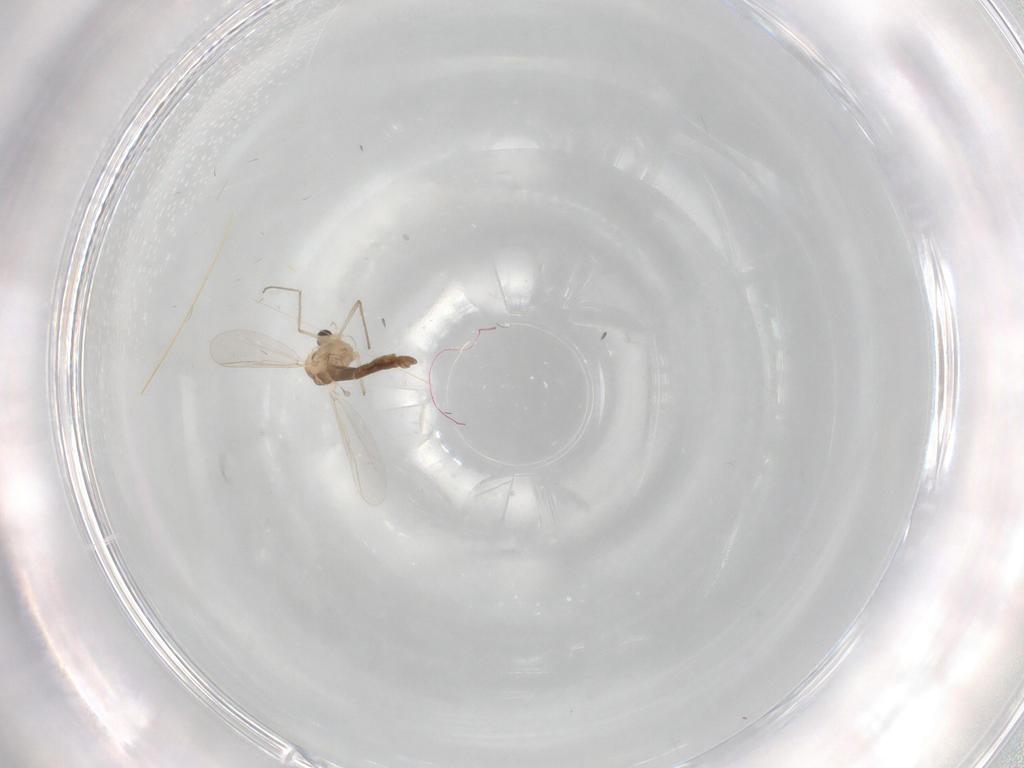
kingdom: Animalia
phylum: Arthropoda
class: Insecta
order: Diptera
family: Chironomidae
